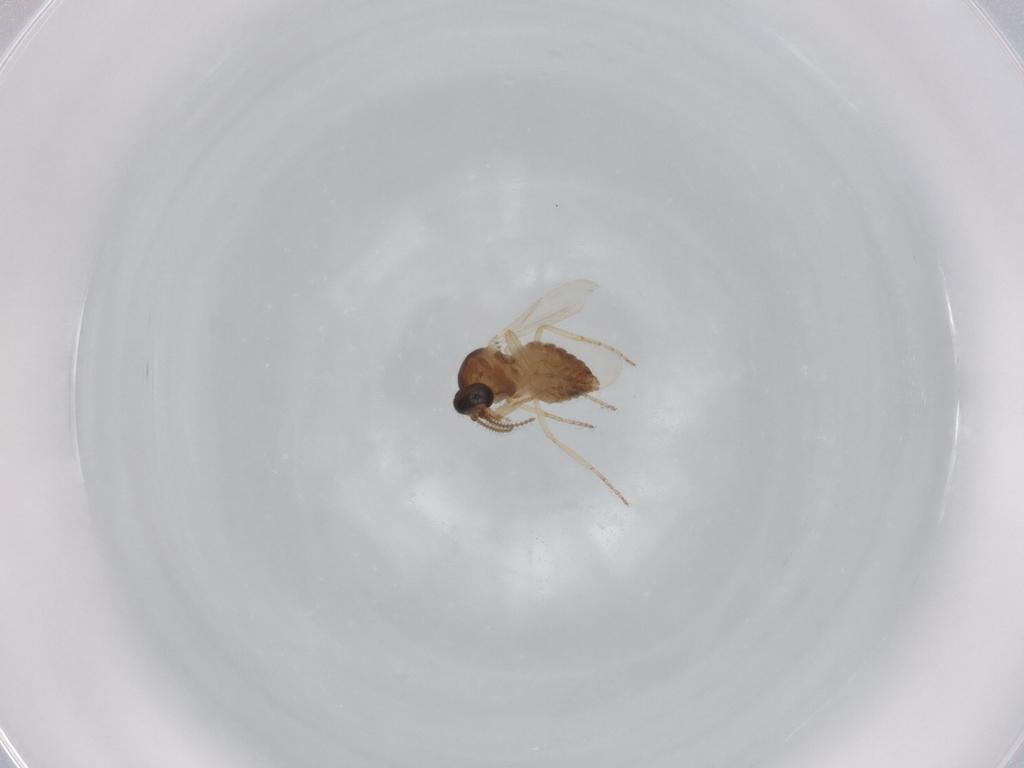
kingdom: Animalia
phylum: Arthropoda
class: Insecta
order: Diptera
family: Ceratopogonidae
